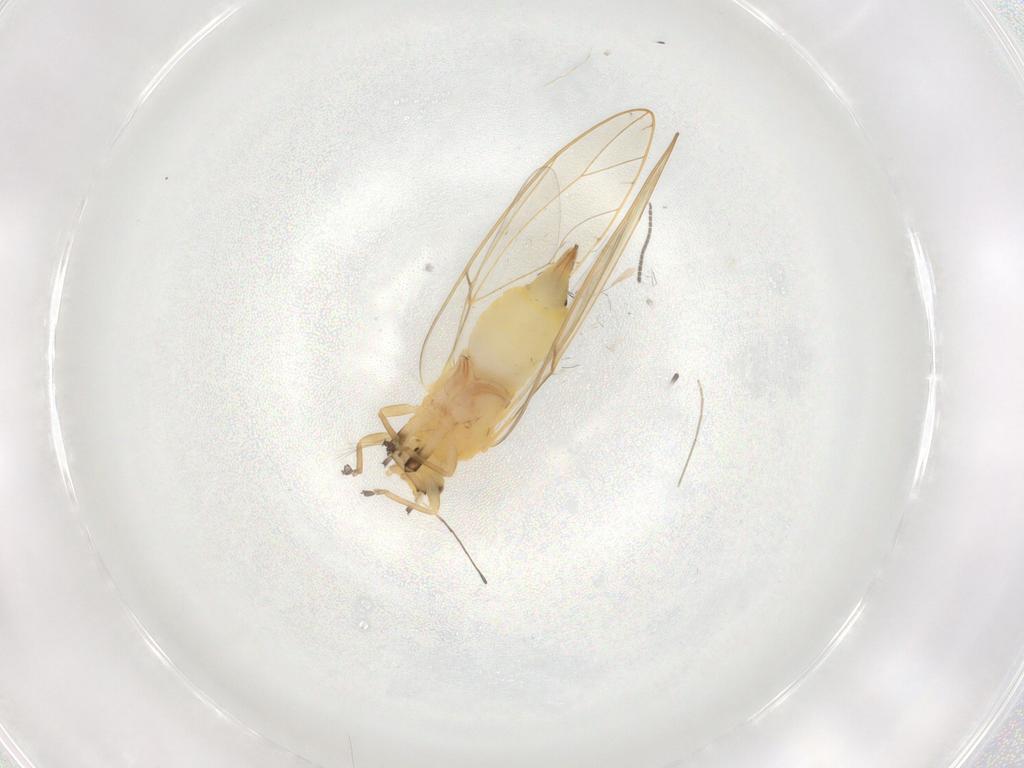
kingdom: Animalia
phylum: Arthropoda
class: Insecta
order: Hemiptera
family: Triozidae
